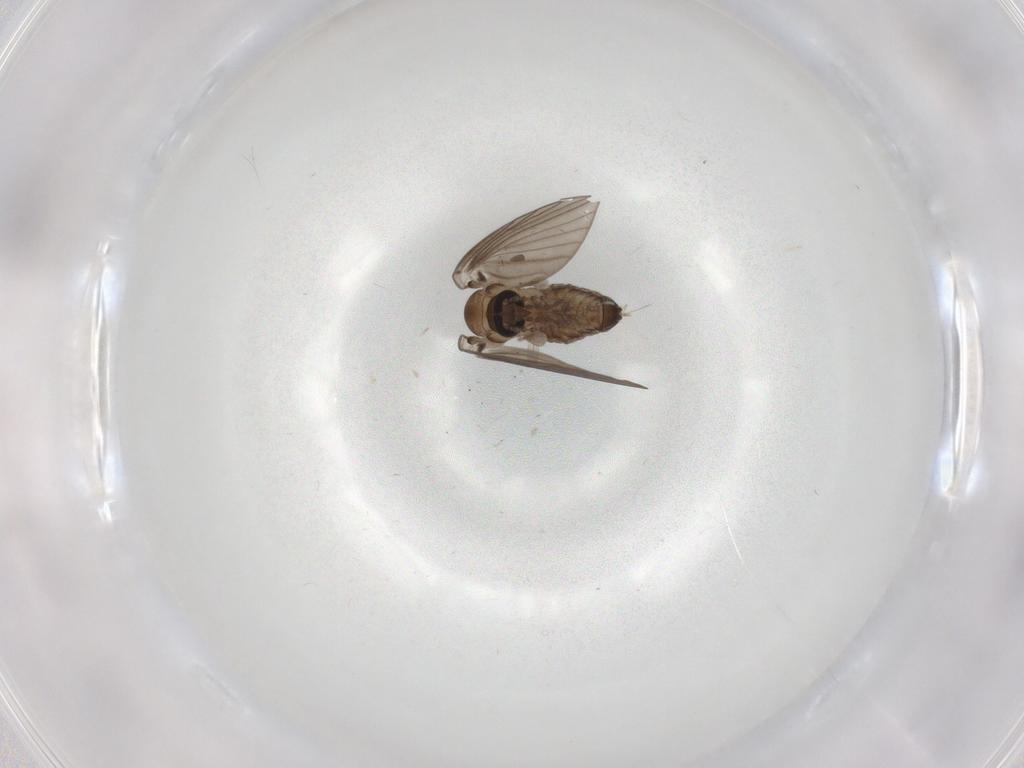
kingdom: Animalia
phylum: Arthropoda
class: Insecta
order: Diptera
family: Psychodidae
